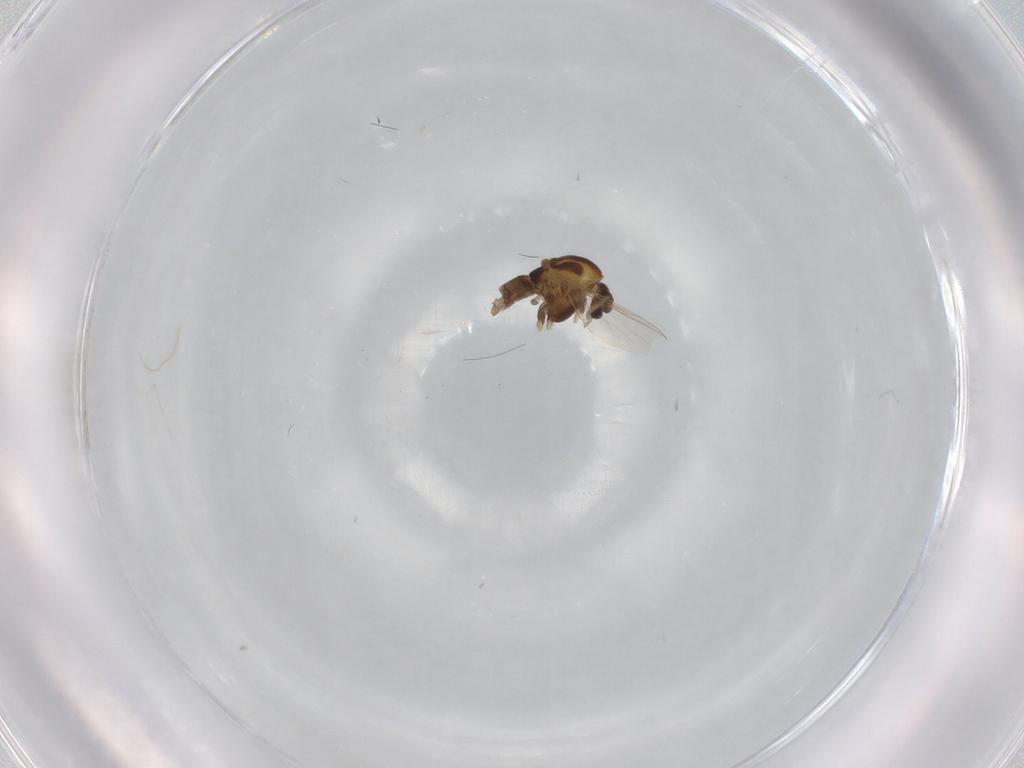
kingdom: Animalia
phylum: Arthropoda
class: Insecta
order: Diptera
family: Chironomidae
